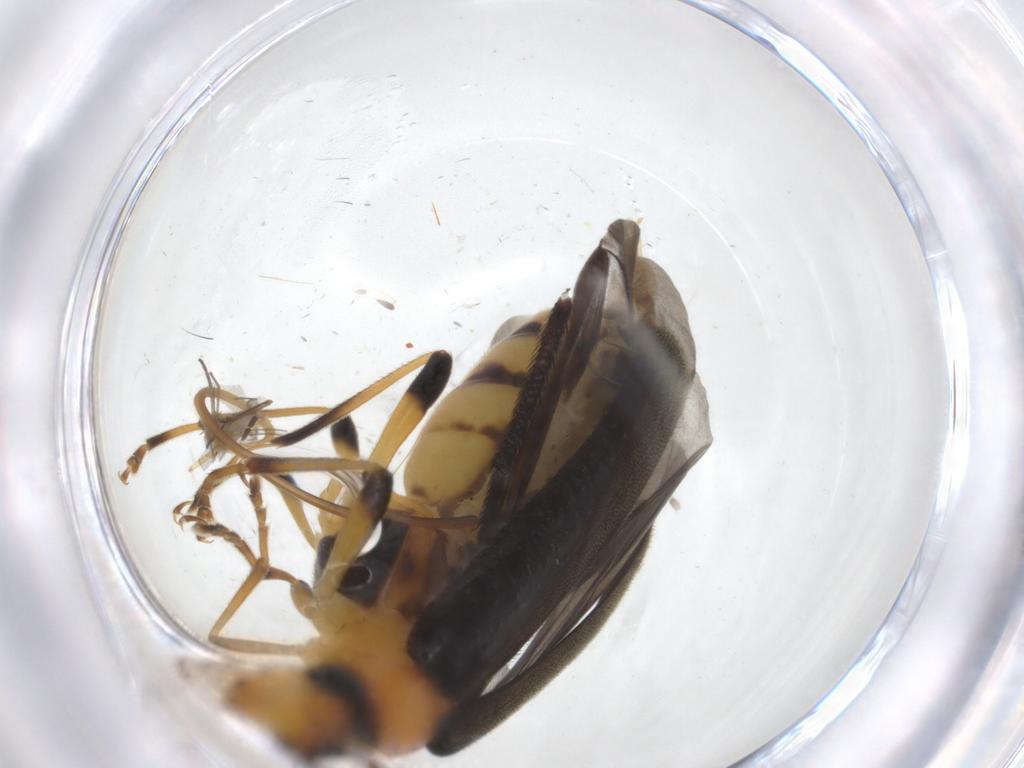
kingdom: Animalia
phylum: Arthropoda
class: Insecta
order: Coleoptera
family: Oedemeridae
